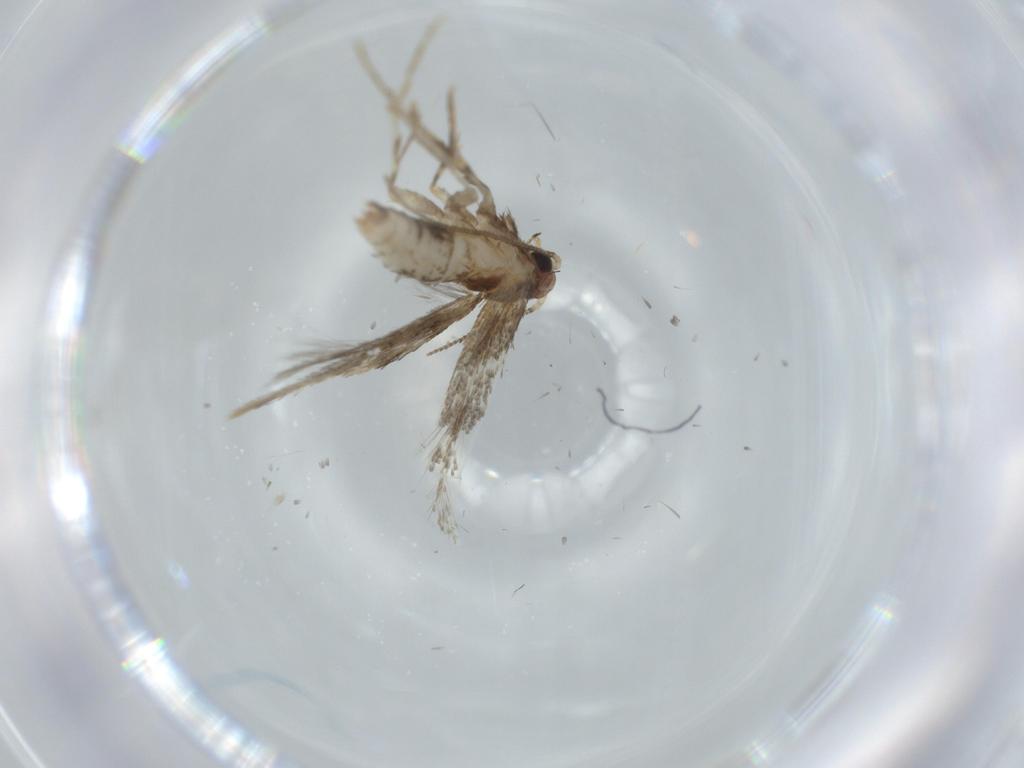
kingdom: Animalia
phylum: Arthropoda
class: Insecta
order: Lepidoptera
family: Tineidae
